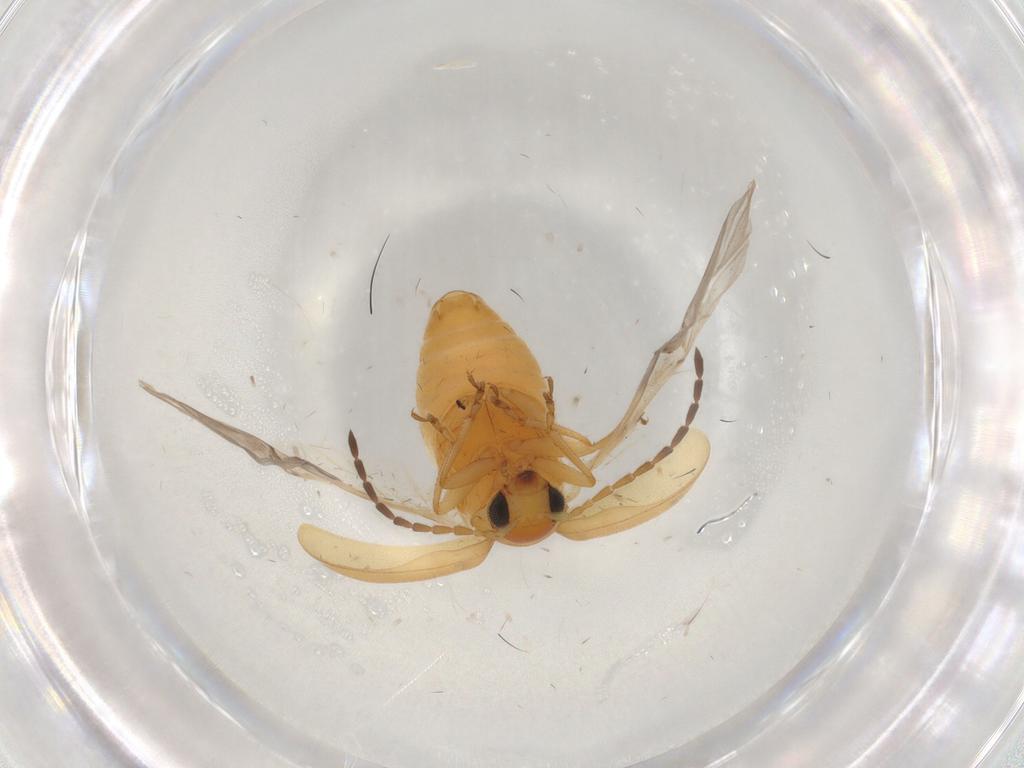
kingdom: Animalia
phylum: Arthropoda
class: Insecta
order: Coleoptera
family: Chrysomelidae
